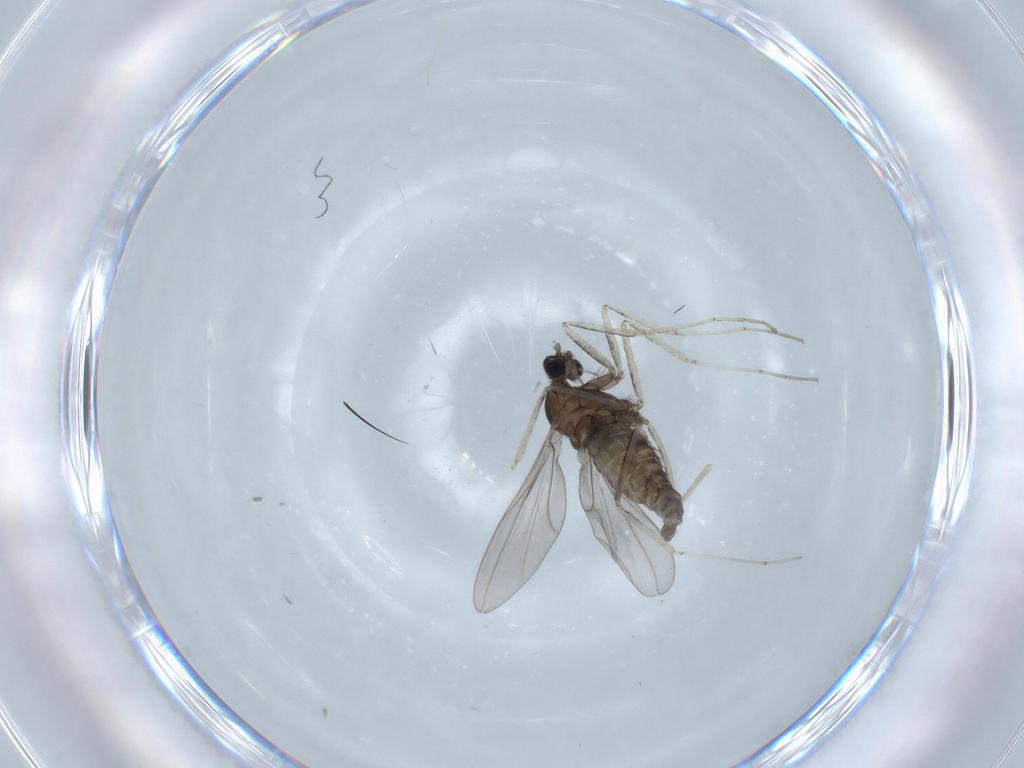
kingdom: Animalia
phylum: Arthropoda
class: Insecta
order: Diptera
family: Cecidomyiidae
